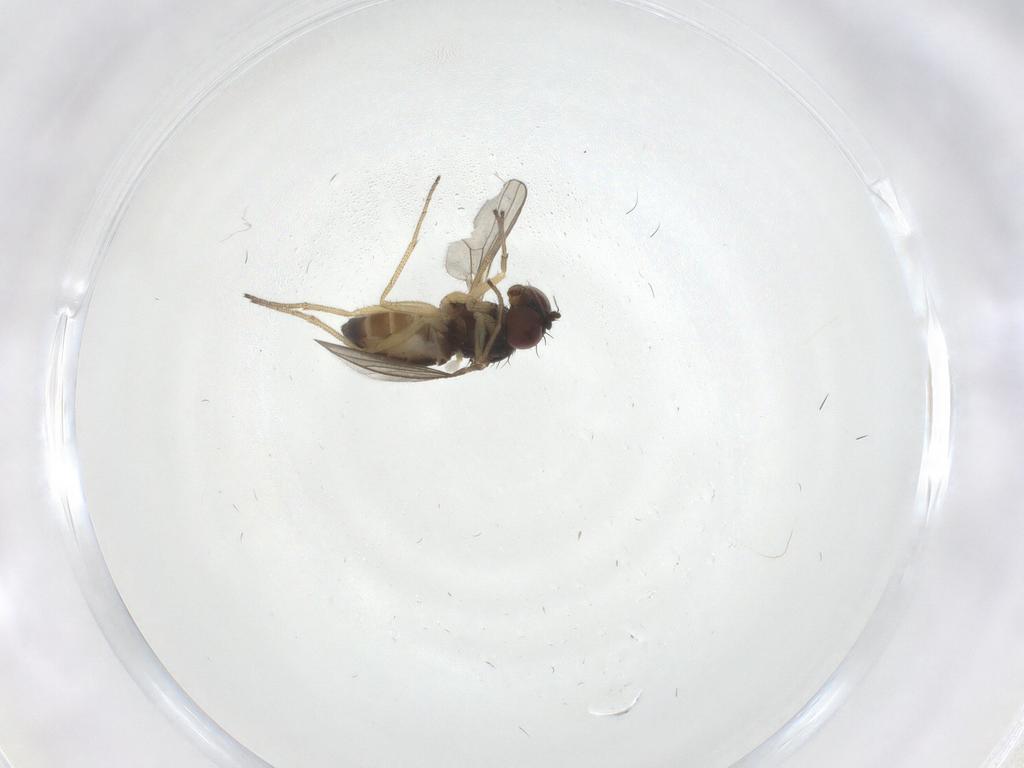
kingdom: Animalia
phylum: Arthropoda
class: Insecta
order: Diptera
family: Dolichopodidae
